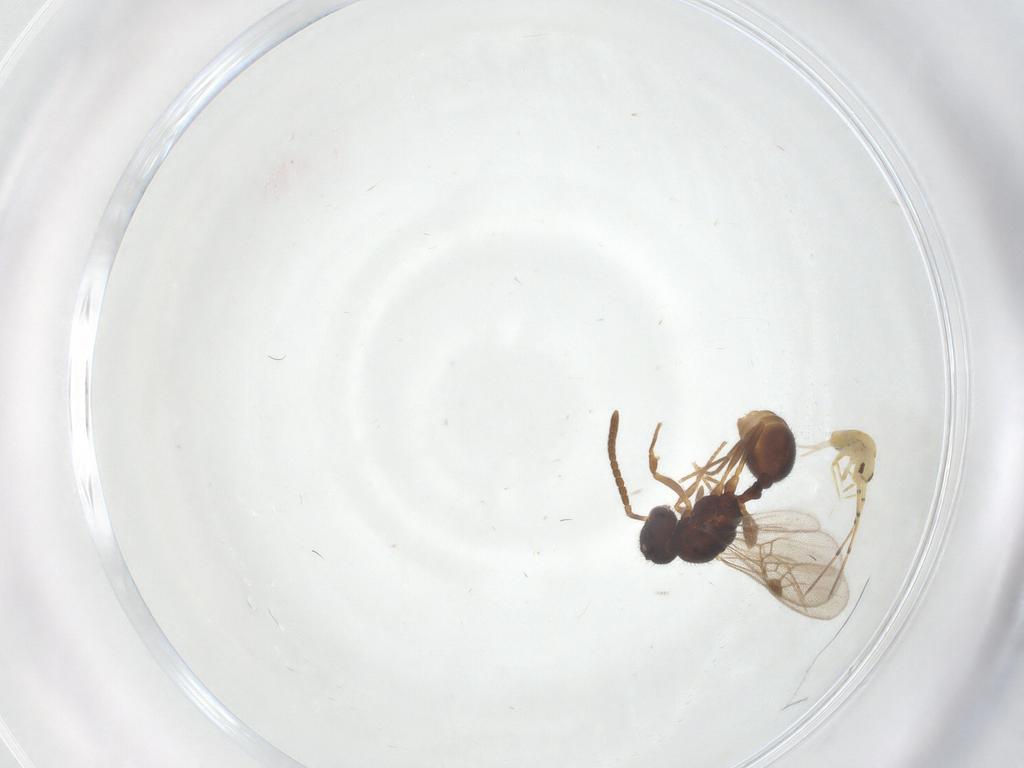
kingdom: Animalia
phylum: Arthropoda
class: Insecta
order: Hymenoptera
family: Formicidae
